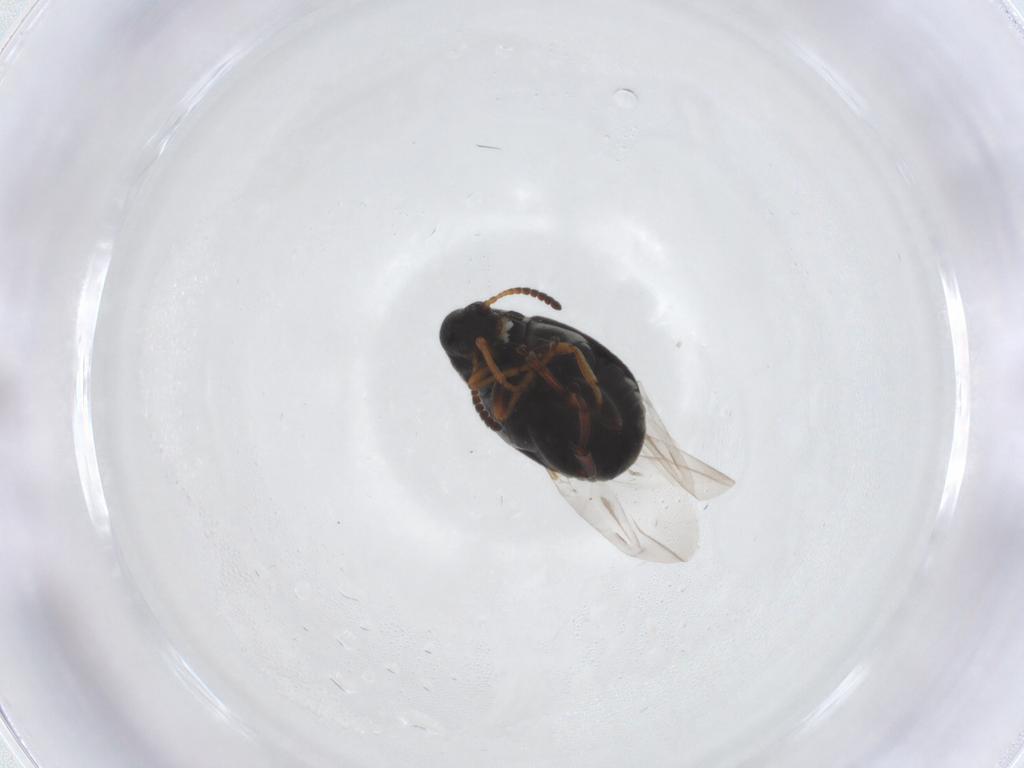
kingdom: Animalia
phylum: Arthropoda
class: Insecta
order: Coleoptera
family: Chrysomelidae
